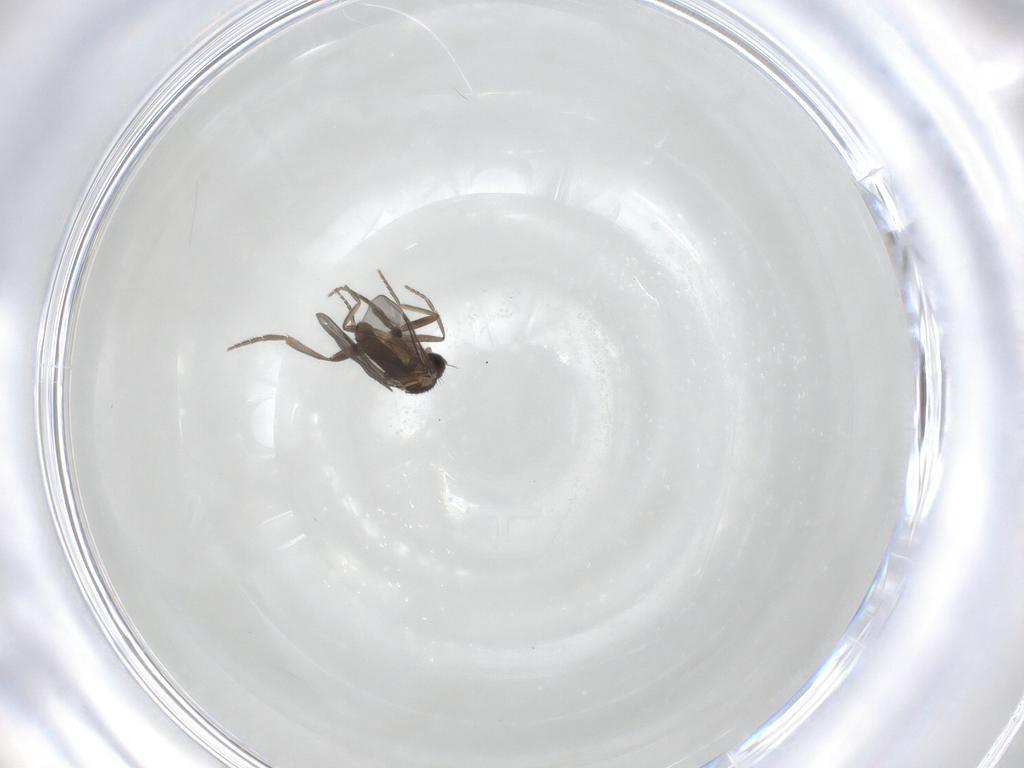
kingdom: Animalia
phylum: Arthropoda
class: Insecta
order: Diptera
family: Phoridae
